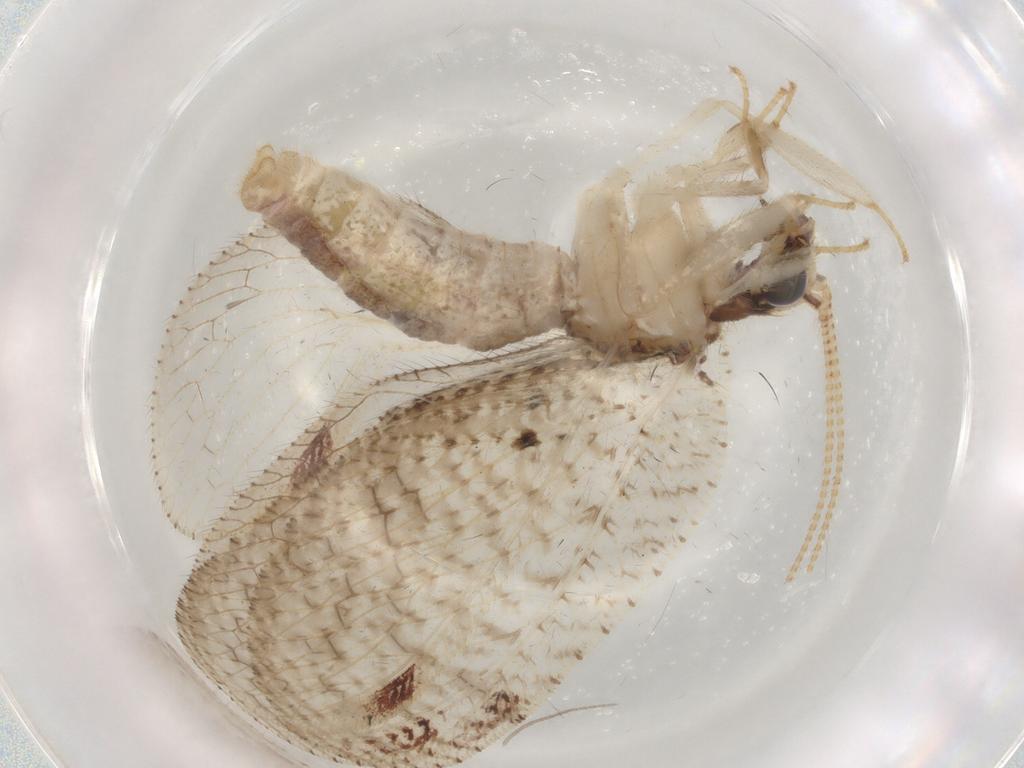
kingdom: Animalia
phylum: Arthropoda
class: Insecta
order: Neuroptera
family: Hemerobiidae
